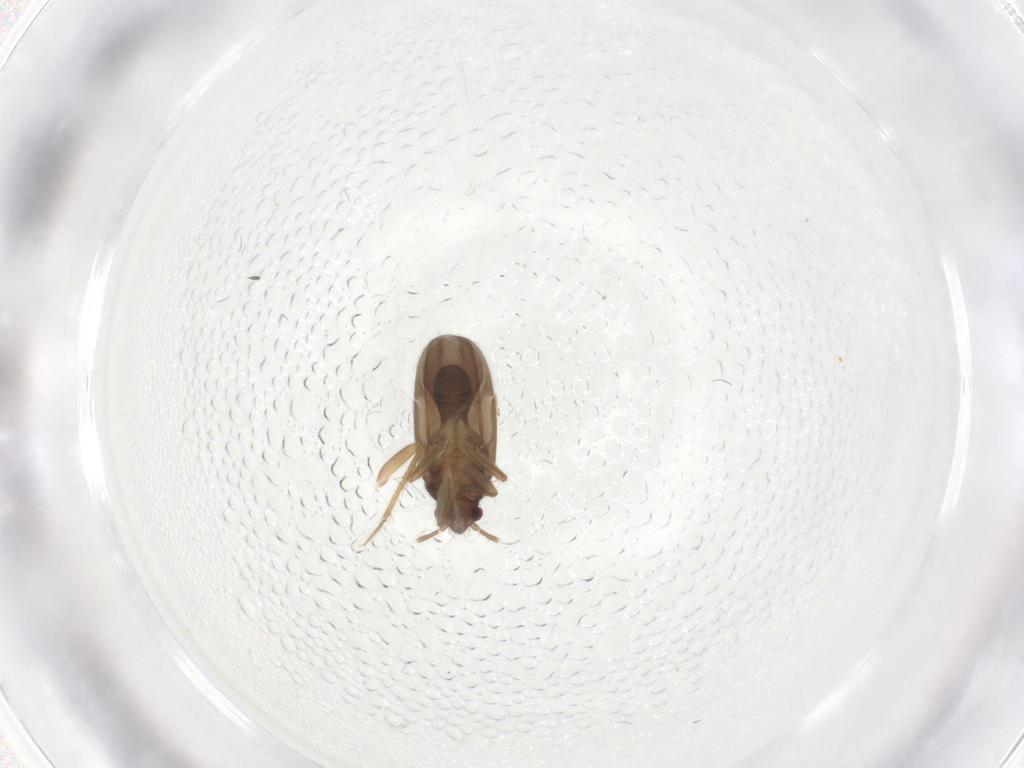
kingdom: Animalia
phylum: Arthropoda
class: Insecta
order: Hemiptera
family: Ceratocombidae
